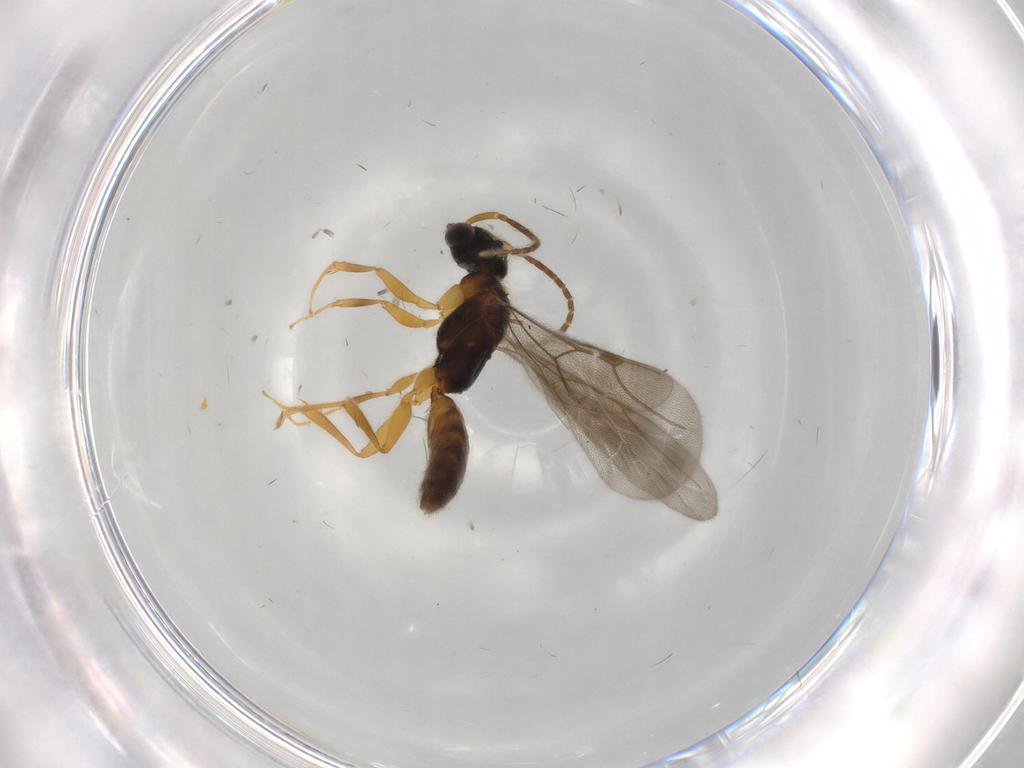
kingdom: Animalia
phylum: Arthropoda
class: Insecta
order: Hymenoptera
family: Bethylidae
